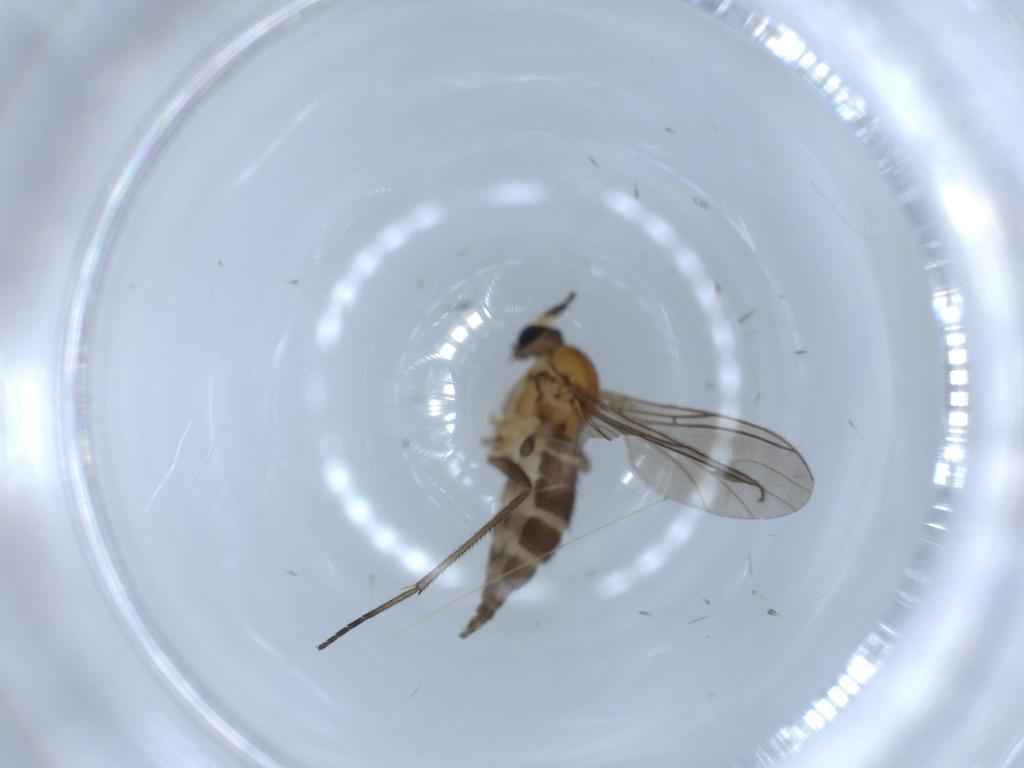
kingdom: Animalia
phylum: Arthropoda
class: Insecta
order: Diptera
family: Sciaridae
